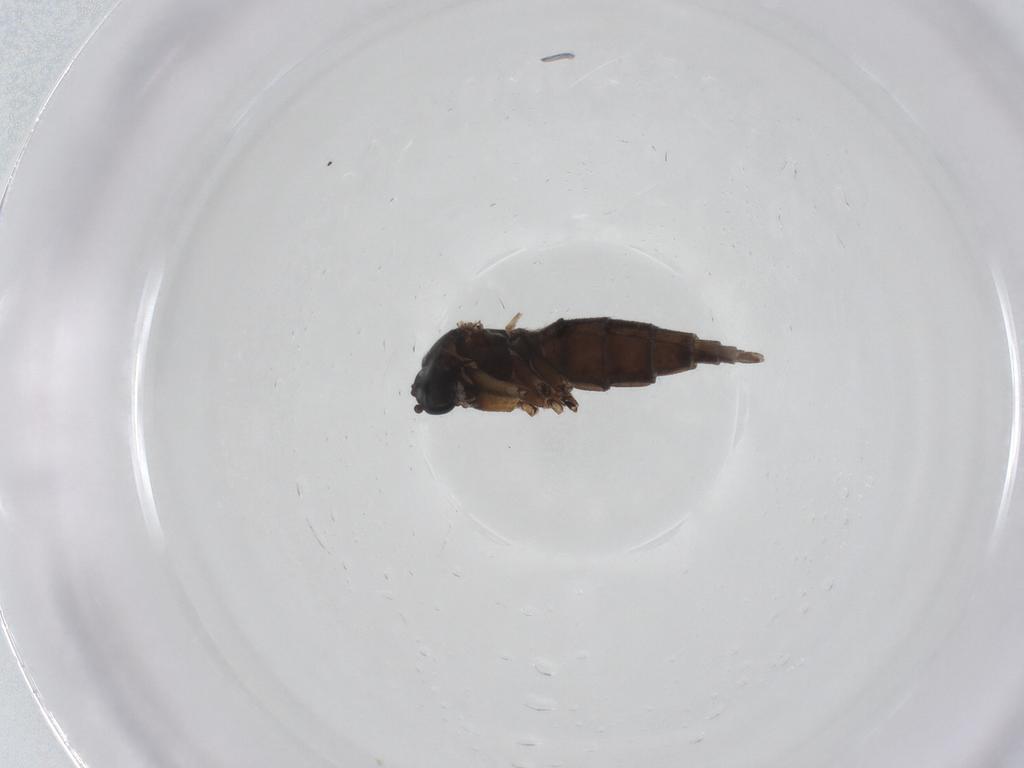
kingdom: Animalia
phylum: Arthropoda
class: Insecta
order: Diptera
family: Sciaridae
